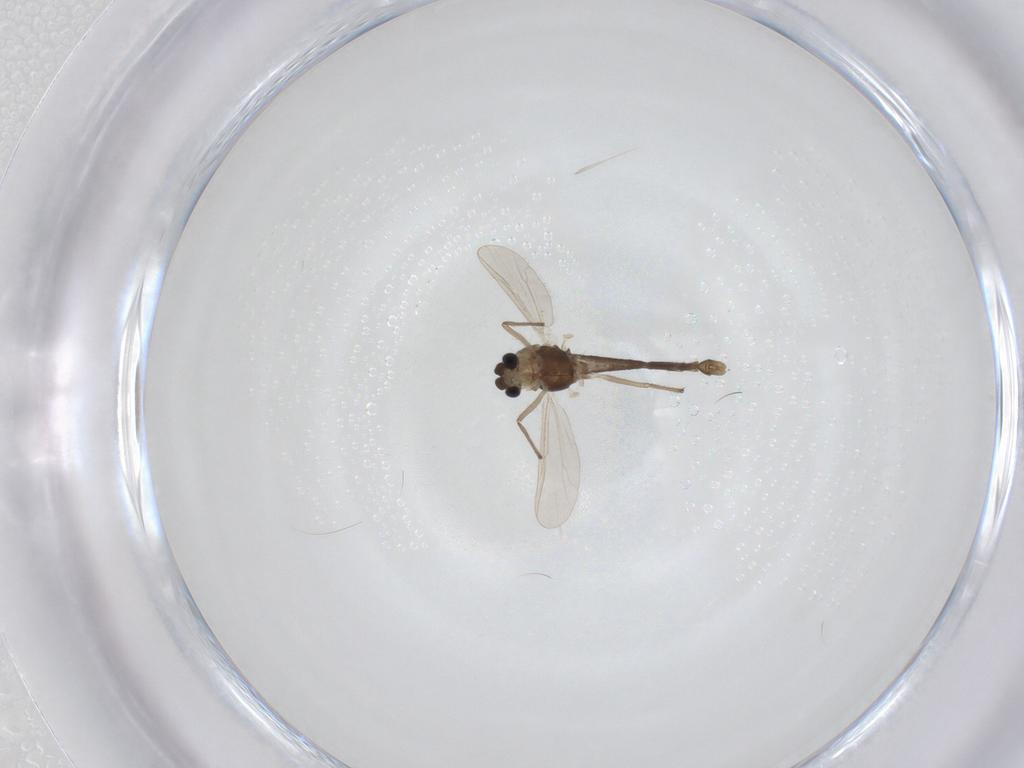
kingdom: Animalia
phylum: Arthropoda
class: Insecta
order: Diptera
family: Chironomidae
